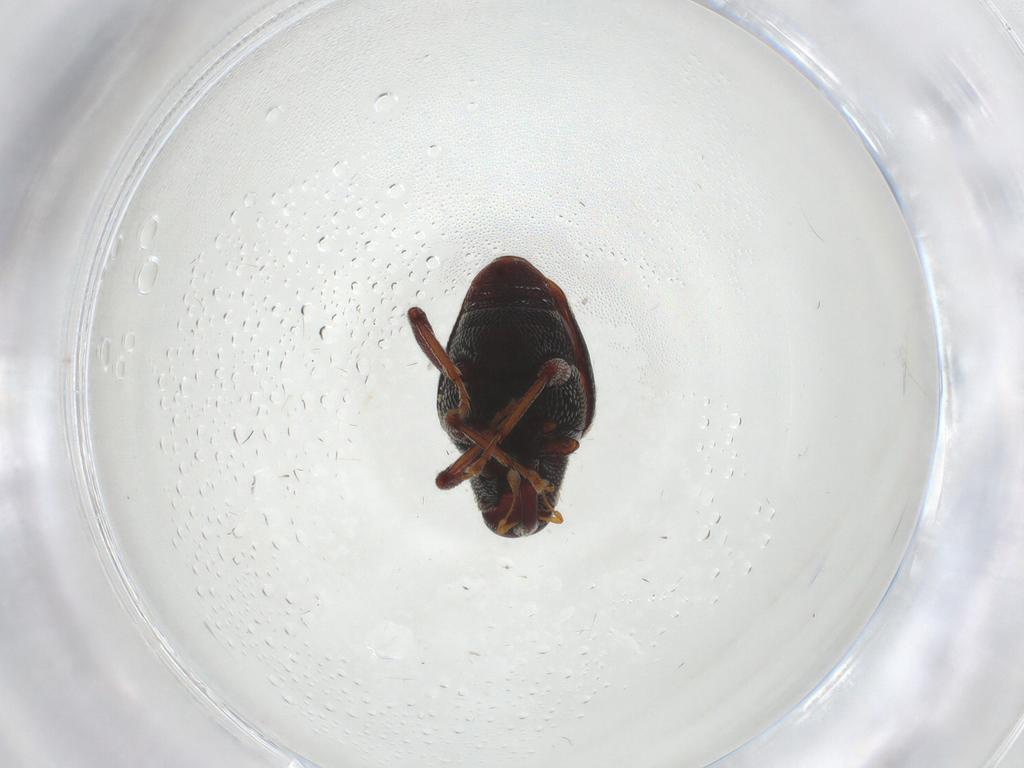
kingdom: Animalia
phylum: Arthropoda
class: Insecta
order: Coleoptera
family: Curculionidae
